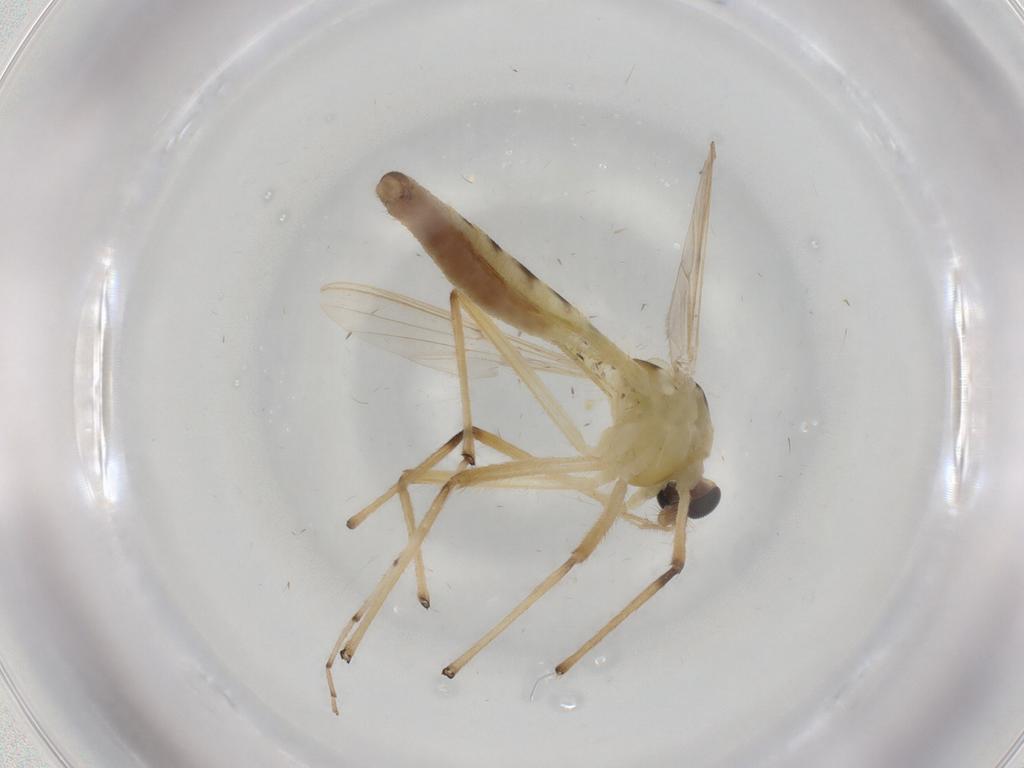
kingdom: Animalia
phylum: Arthropoda
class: Insecta
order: Diptera
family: Chironomidae
